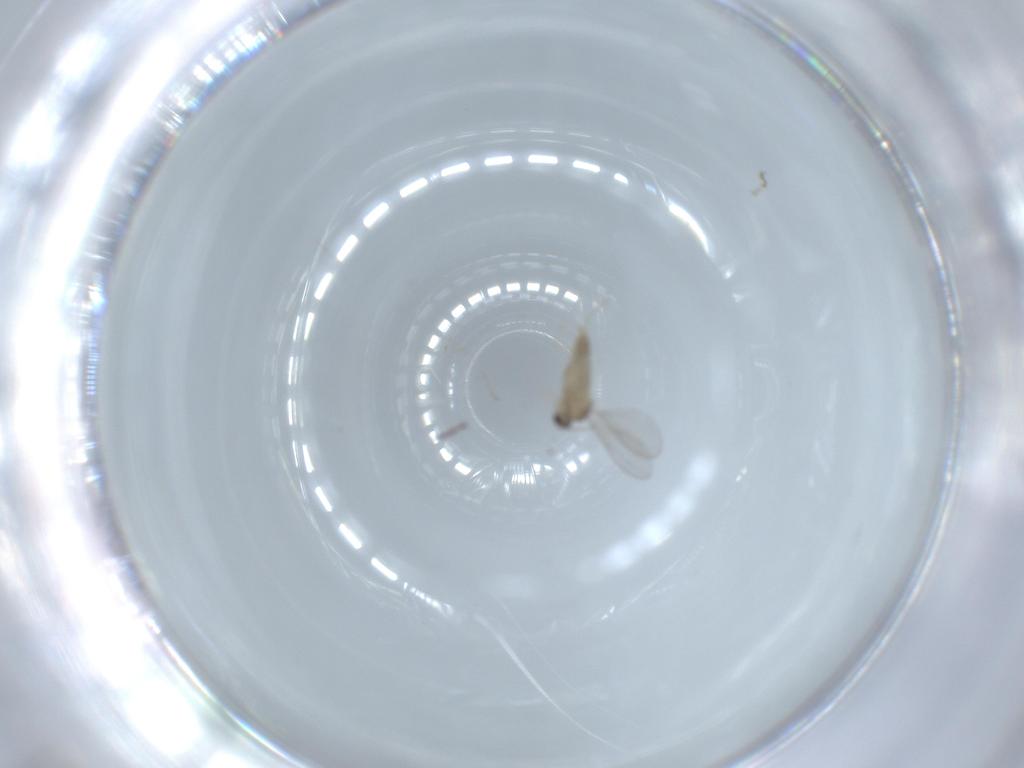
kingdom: Animalia
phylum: Arthropoda
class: Insecta
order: Diptera
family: Cecidomyiidae
